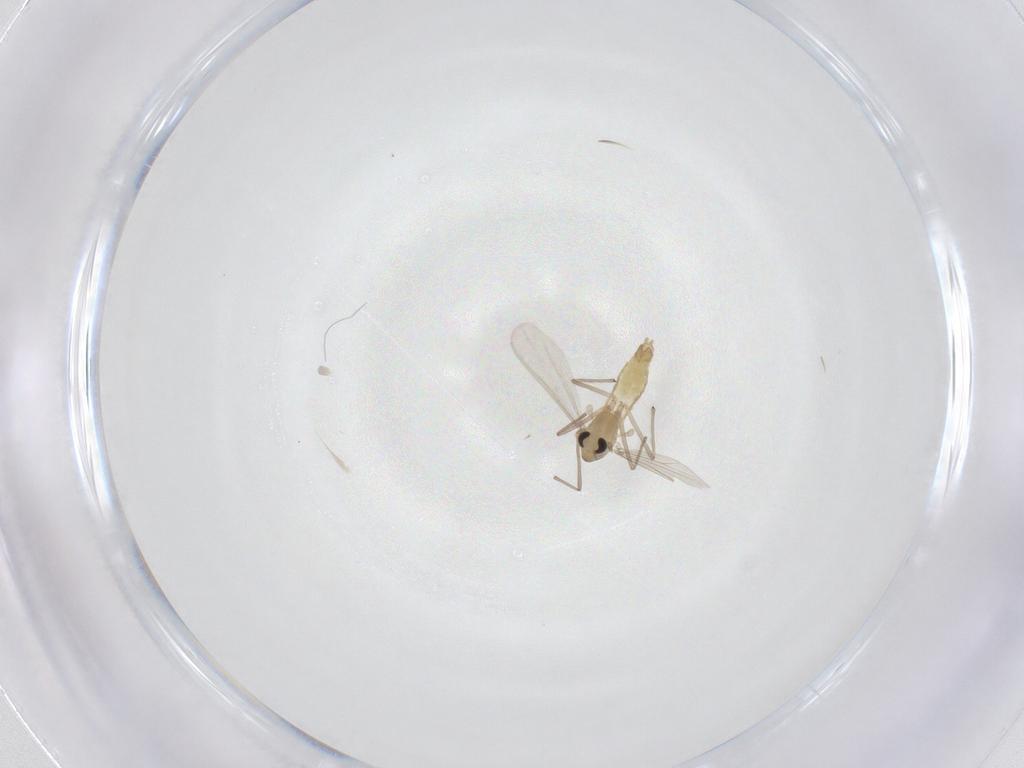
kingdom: Animalia
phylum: Arthropoda
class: Insecta
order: Diptera
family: Chironomidae
